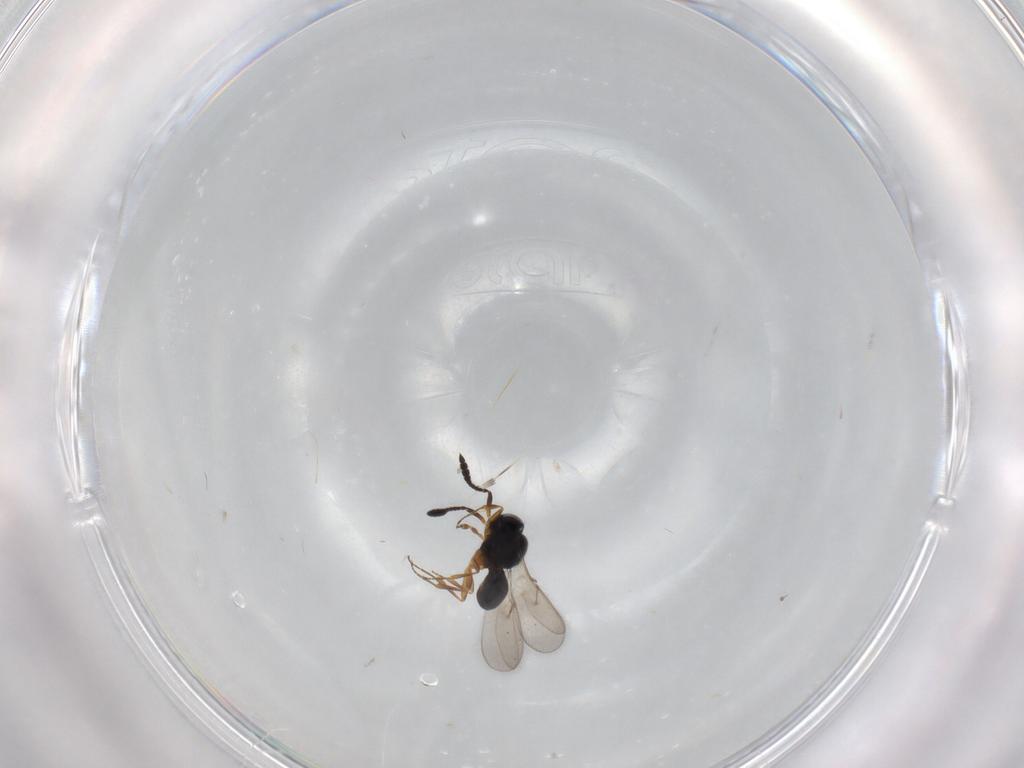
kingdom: Animalia
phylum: Arthropoda
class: Insecta
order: Hymenoptera
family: Scelionidae
